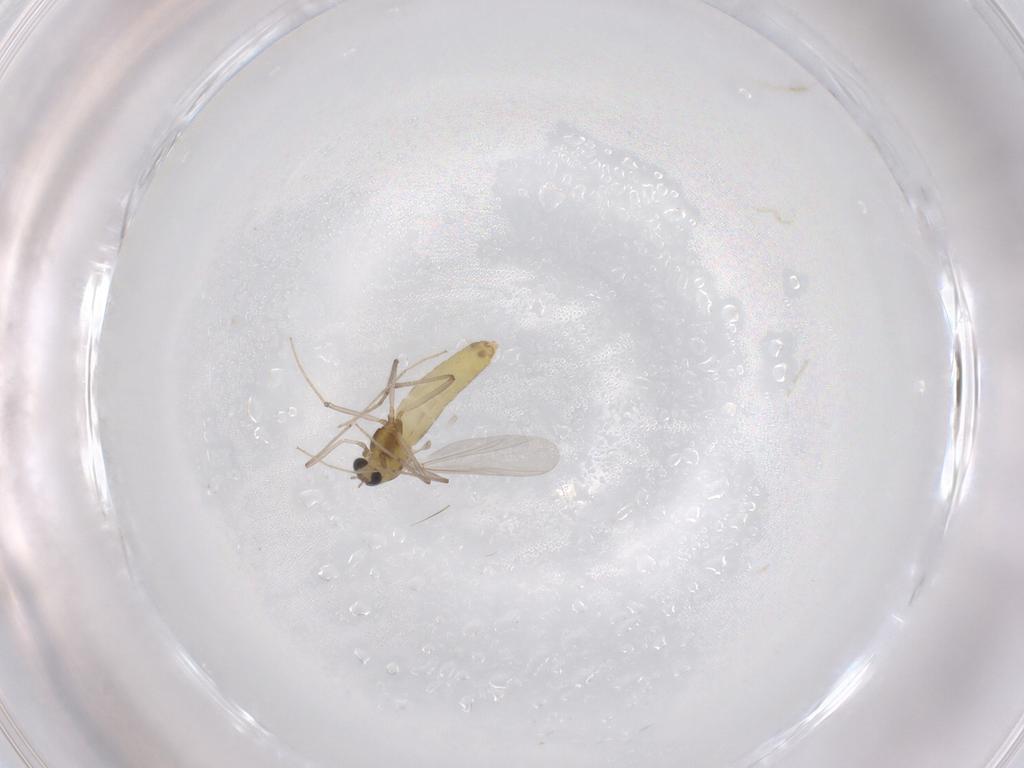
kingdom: Animalia
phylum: Arthropoda
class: Insecta
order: Diptera
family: Chironomidae
